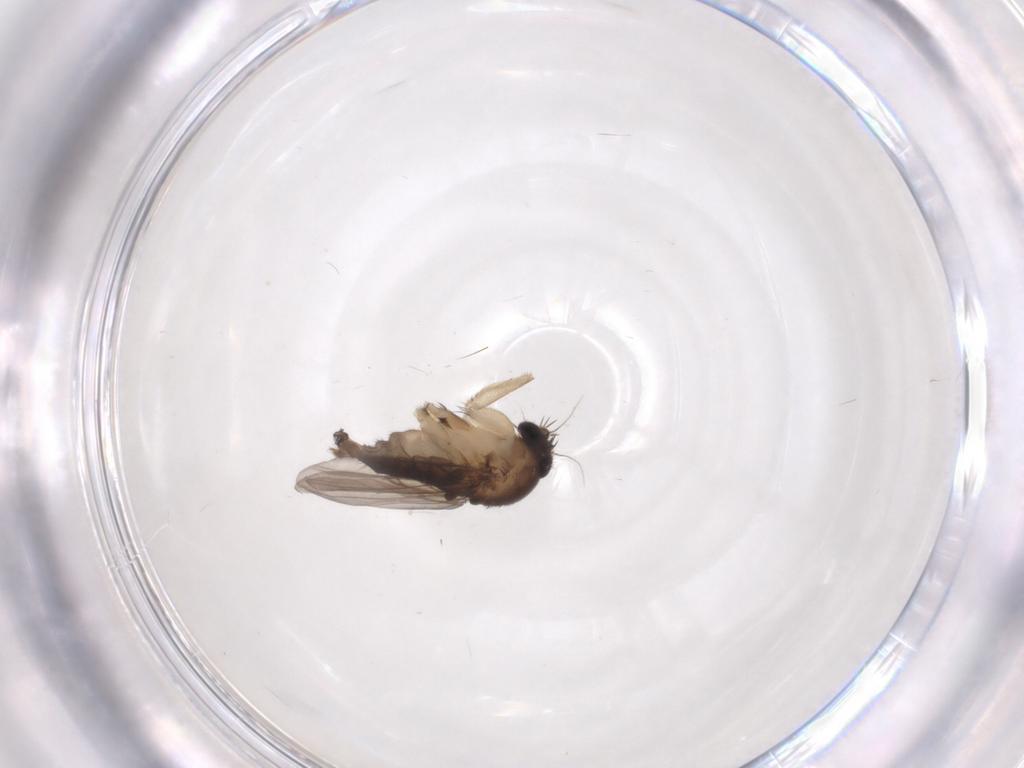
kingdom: Animalia
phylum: Arthropoda
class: Insecta
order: Diptera
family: Phoridae
